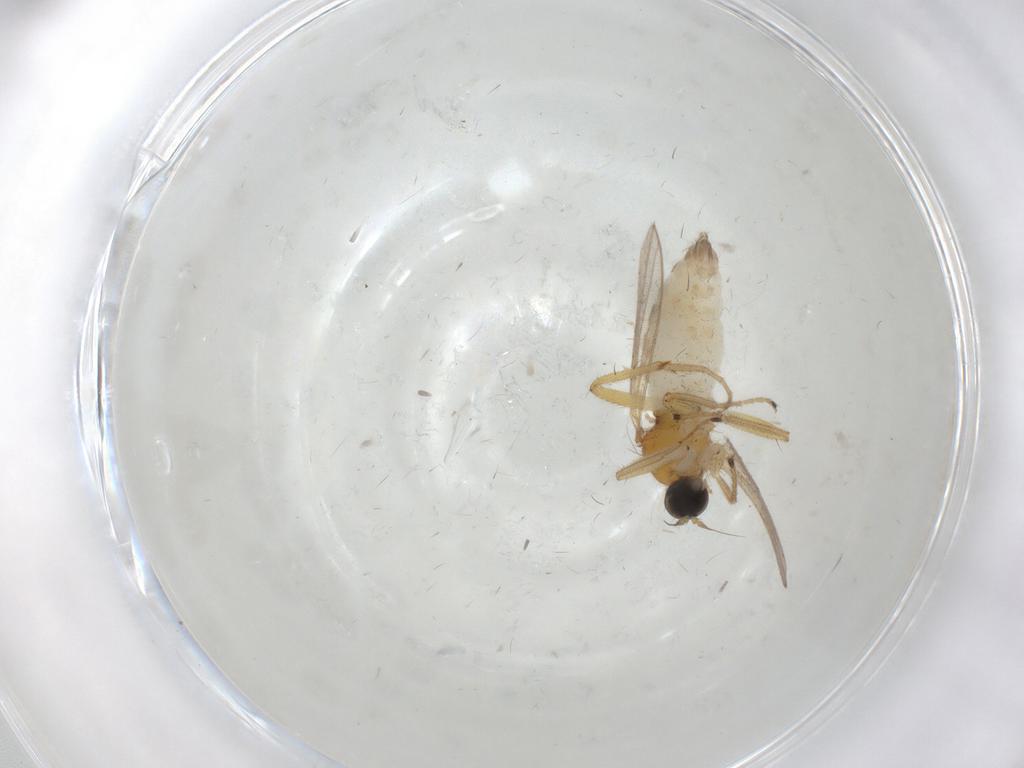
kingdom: Animalia
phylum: Arthropoda
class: Insecta
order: Diptera
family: Hybotidae
